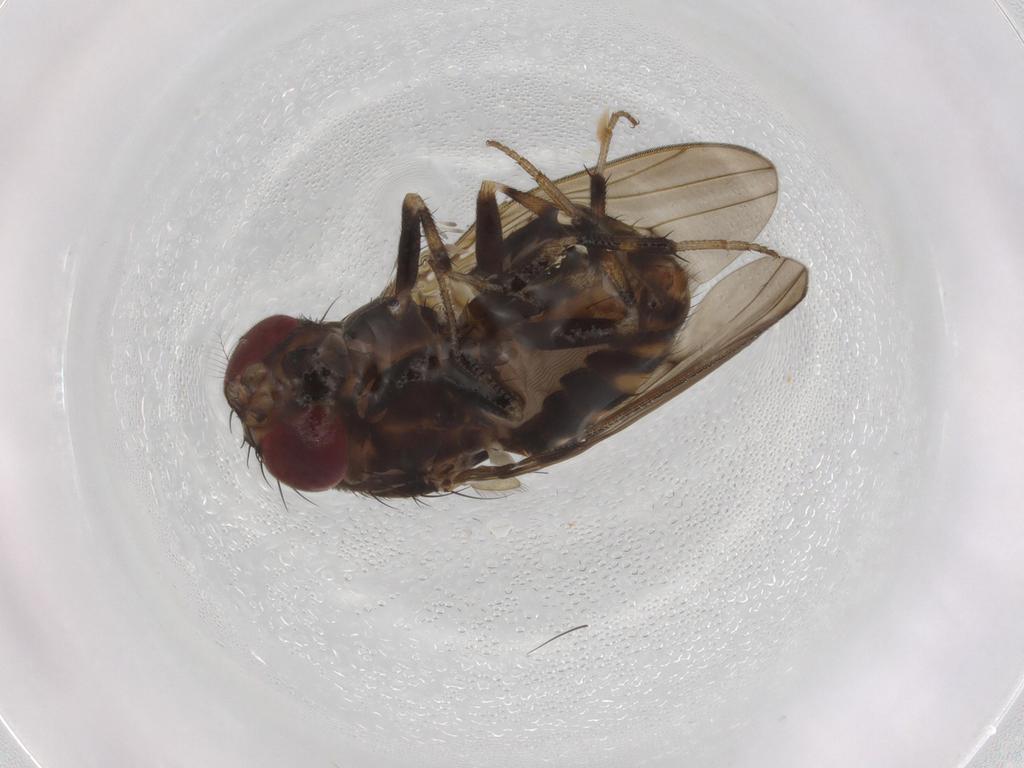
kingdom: Animalia
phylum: Arthropoda
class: Insecta
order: Diptera
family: Drosophilidae
